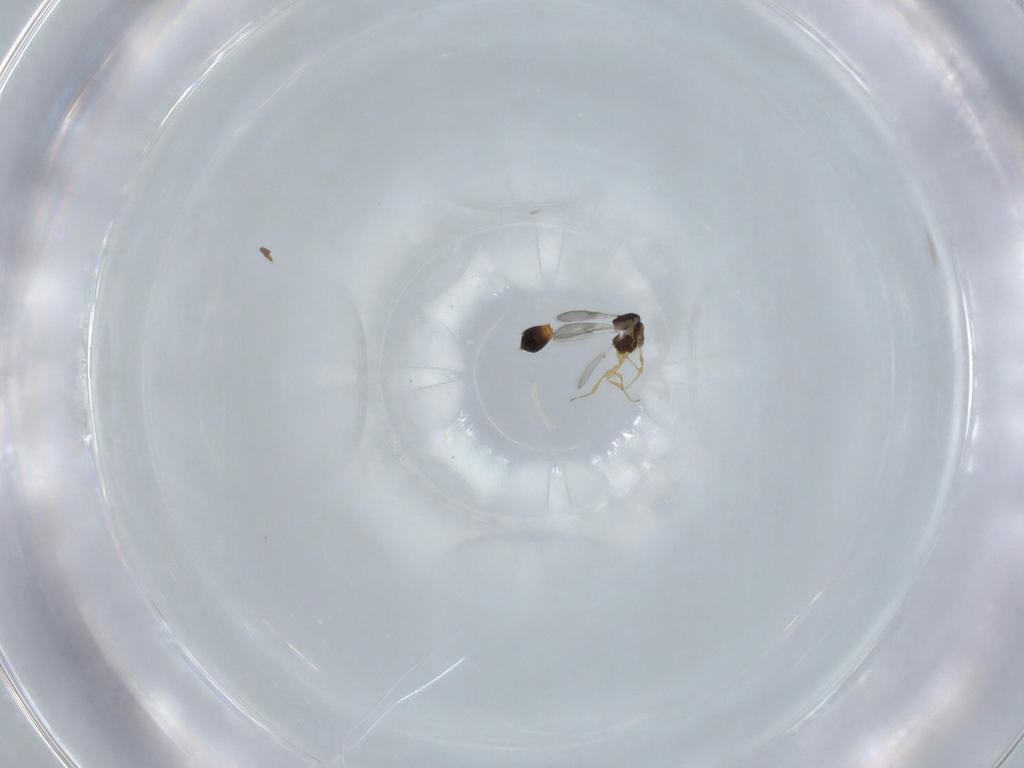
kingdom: Animalia
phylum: Arthropoda
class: Insecta
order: Hymenoptera
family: Scelionidae
